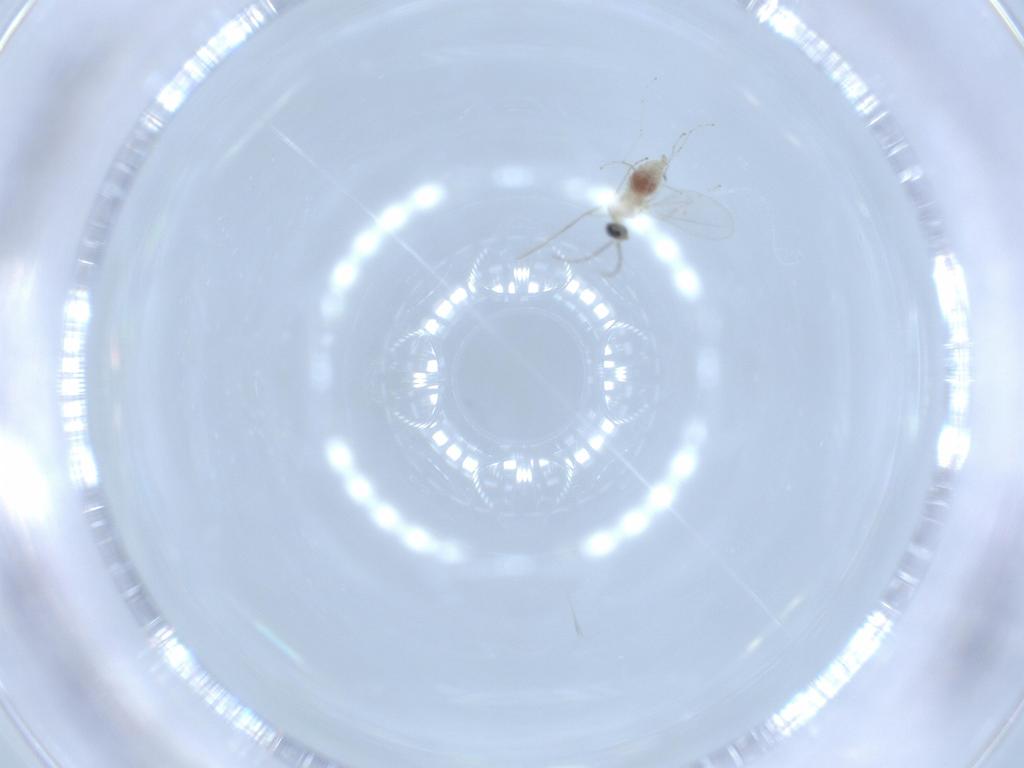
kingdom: Animalia
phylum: Arthropoda
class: Insecta
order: Diptera
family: Cecidomyiidae
